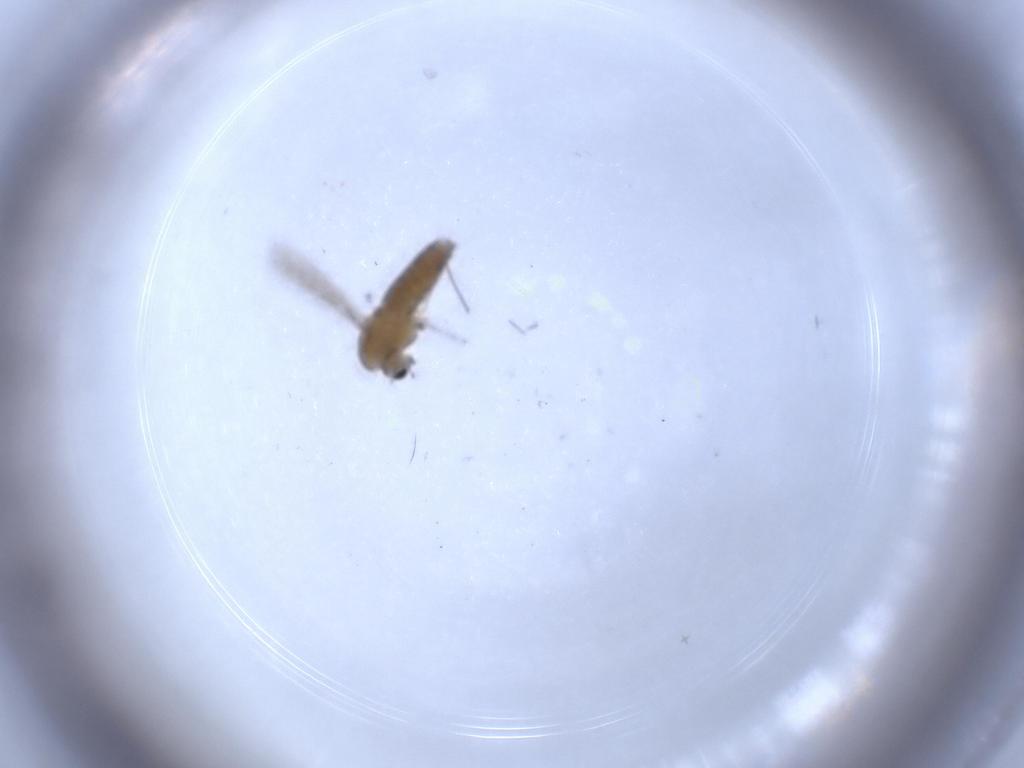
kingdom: Animalia
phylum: Arthropoda
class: Insecta
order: Diptera
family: Chironomidae
